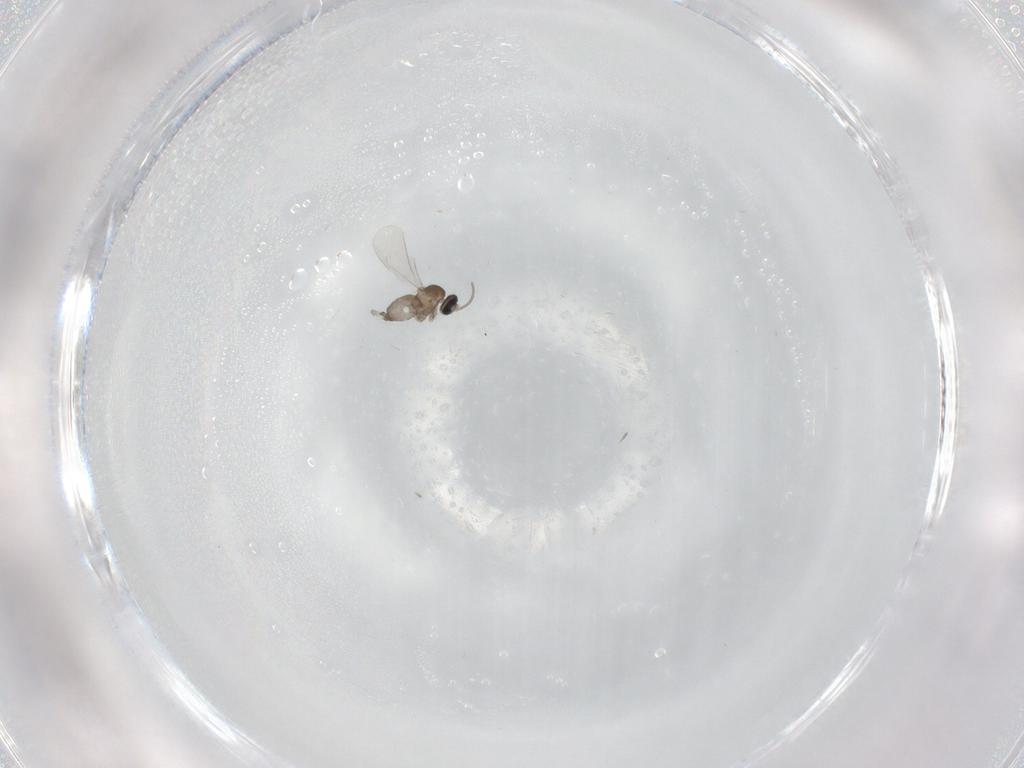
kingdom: Animalia
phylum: Arthropoda
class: Insecta
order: Diptera
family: Cecidomyiidae
